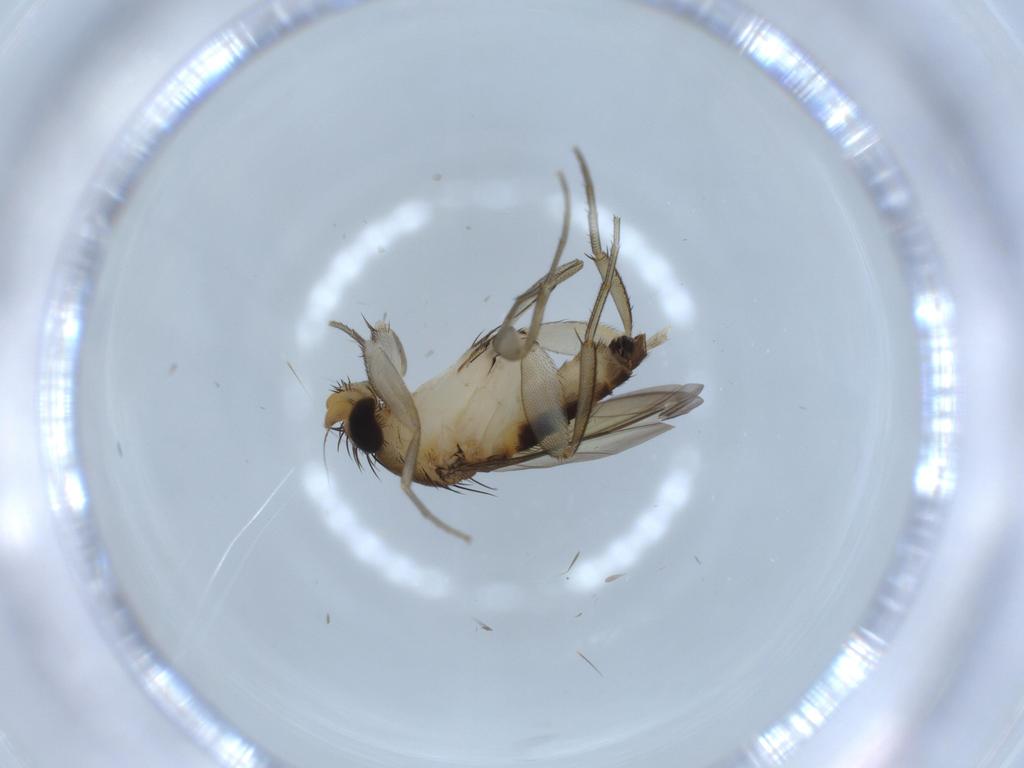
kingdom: Animalia
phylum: Arthropoda
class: Insecta
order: Diptera
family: Phoridae
